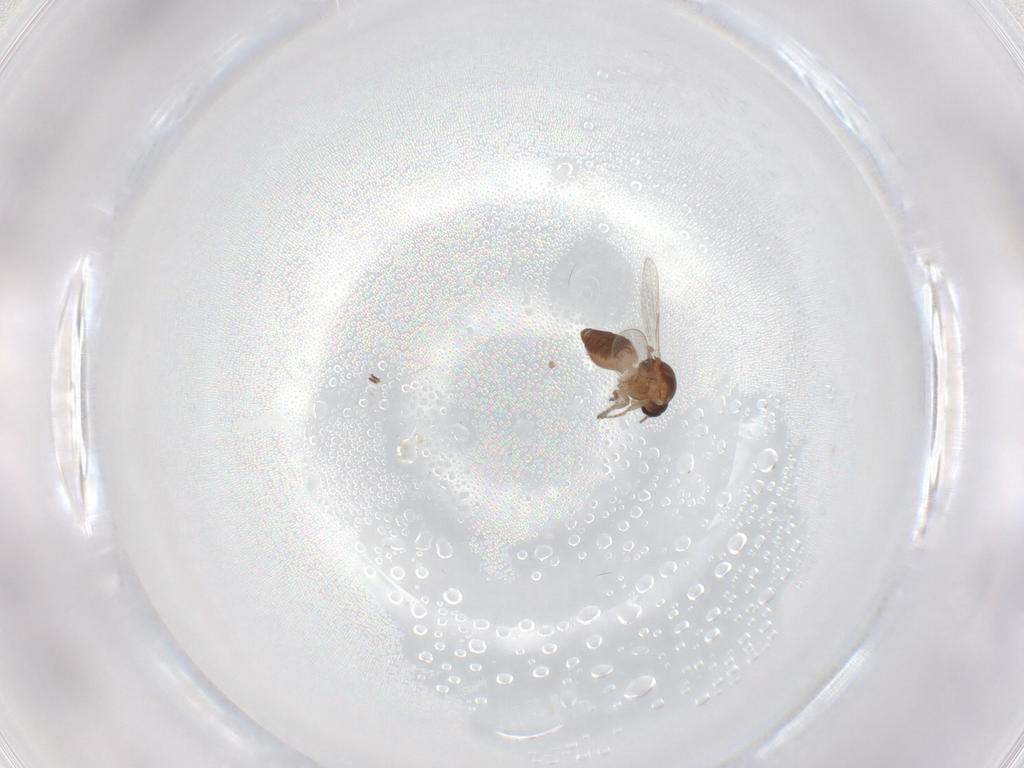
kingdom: Animalia
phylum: Arthropoda
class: Insecta
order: Diptera
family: Ceratopogonidae
